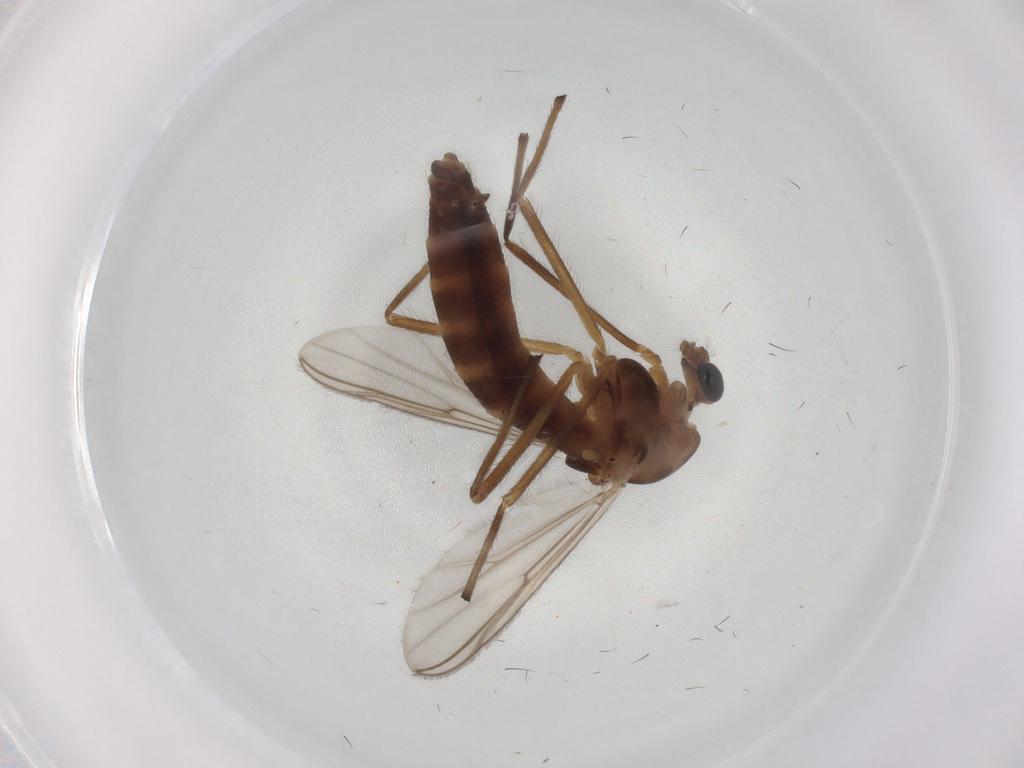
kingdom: Animalia
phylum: Arthropoda
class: Insecta
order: Diptera
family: Cecidomyiidae
